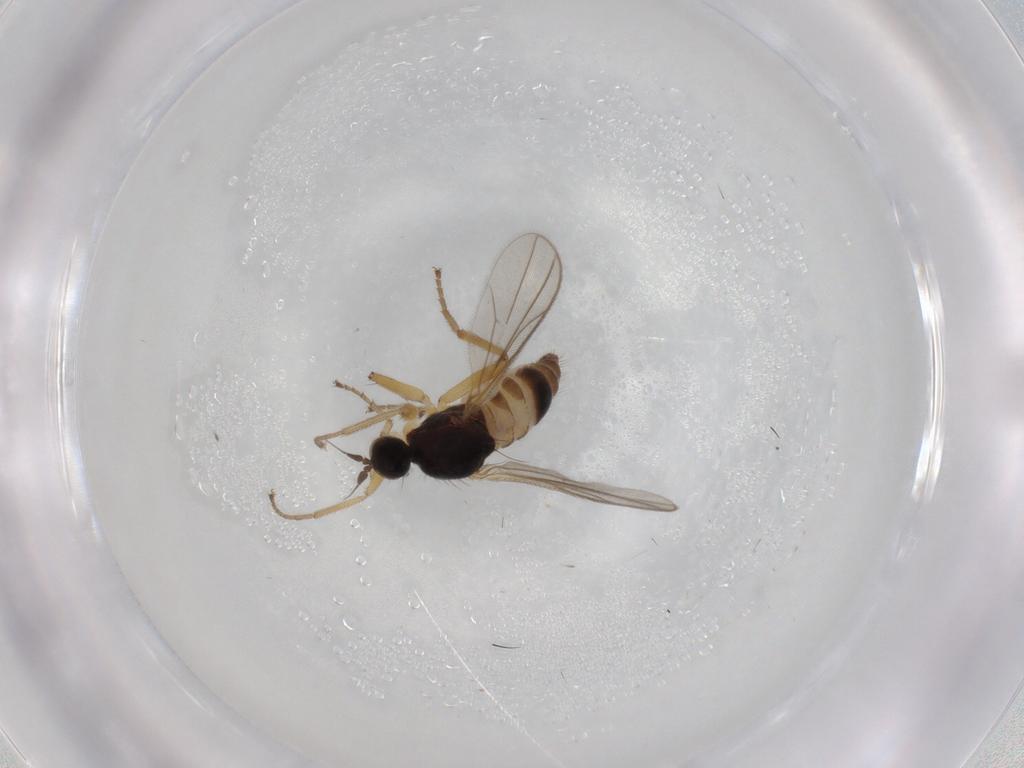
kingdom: Animalia
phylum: Arthropoda
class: Insecta
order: Diptera
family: Hybotidae
